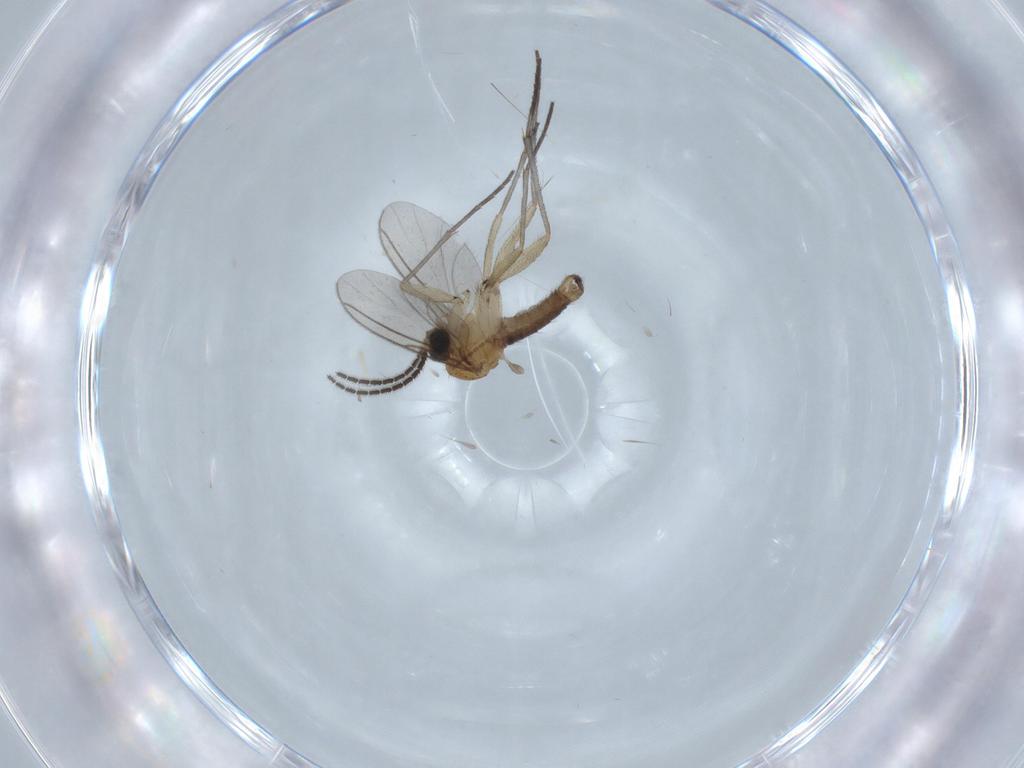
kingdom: Animalia
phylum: Arthropoda
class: Insecta
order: Diptera
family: Sciaridae
